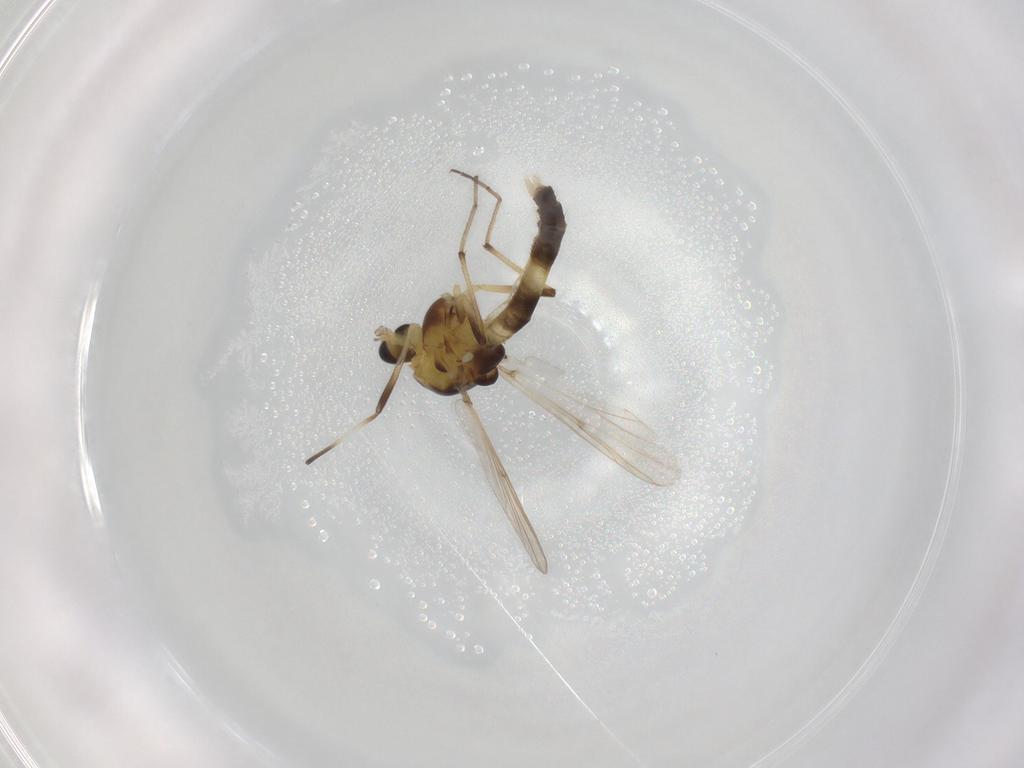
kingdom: Animalia
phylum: Arthropoda
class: Insecta
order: Diptera
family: Chironomidae
